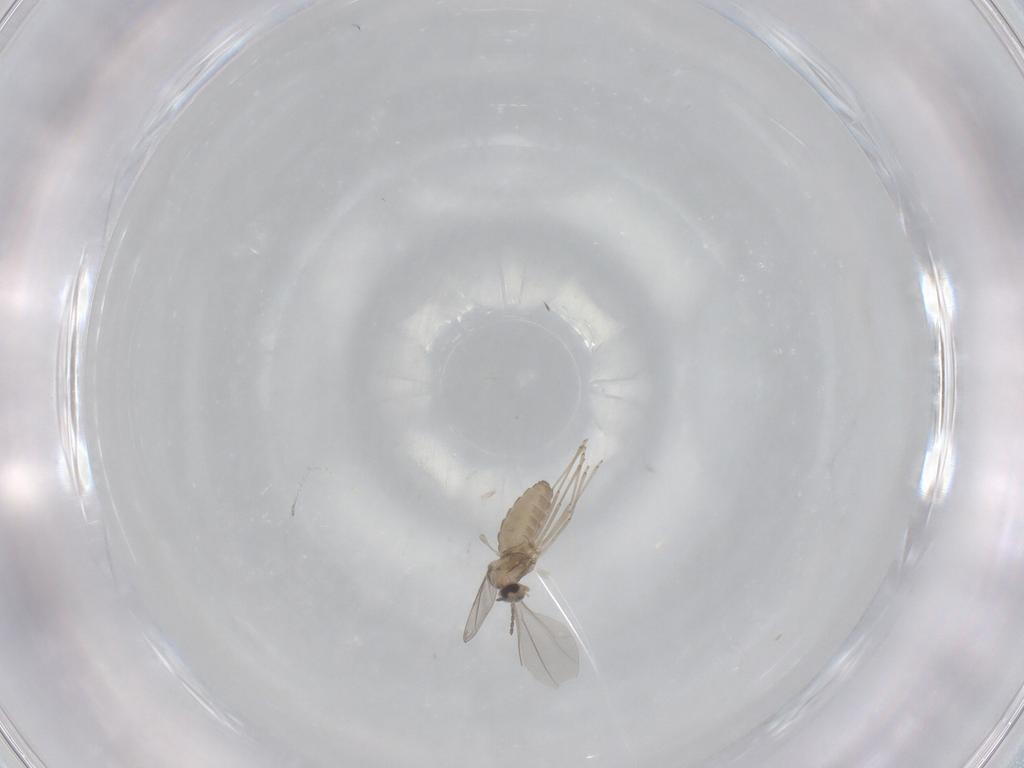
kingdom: Animalia
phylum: Arthropoda
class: Insecta
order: Diptera
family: Cecidomyiidae
